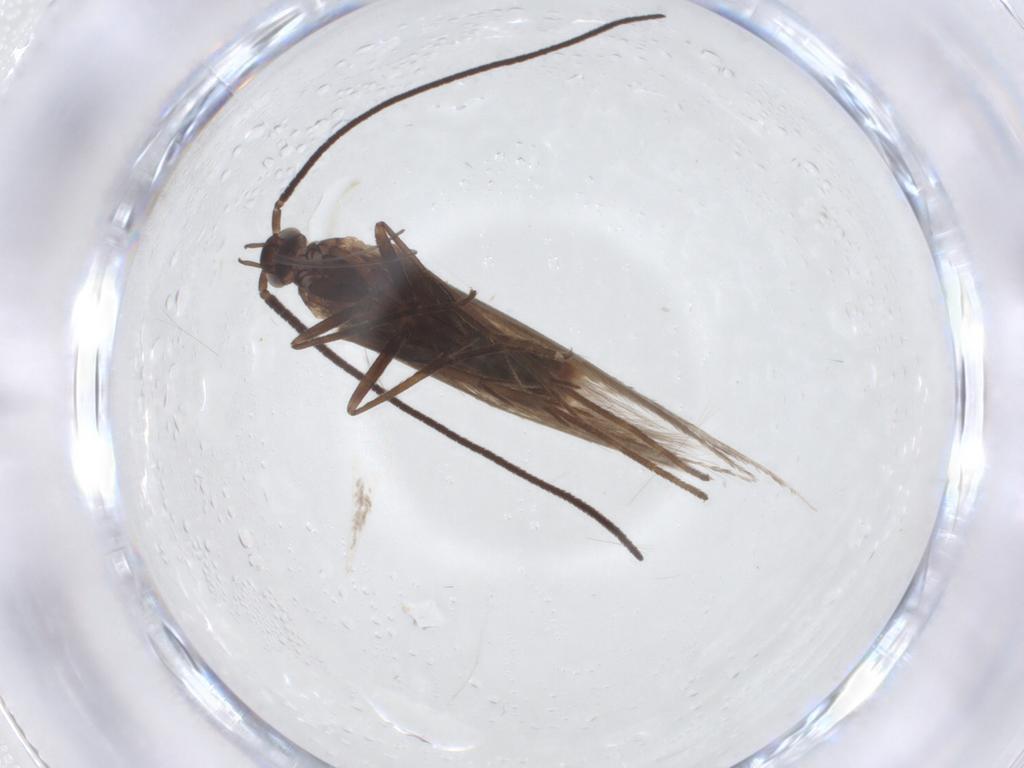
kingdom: Animalia
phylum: Arthropoda
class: Insecta
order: Lepidoptera
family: Coleophoridae
